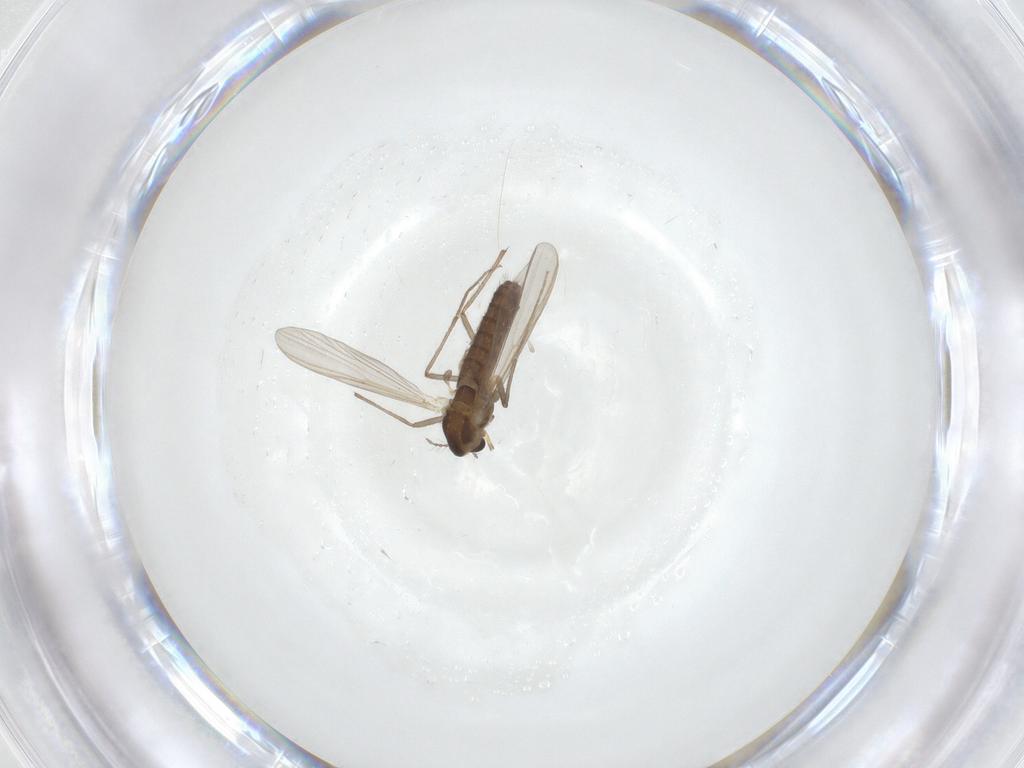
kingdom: Animalia
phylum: Arthropoda
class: Insecta
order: Diptera
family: Chironomidae
